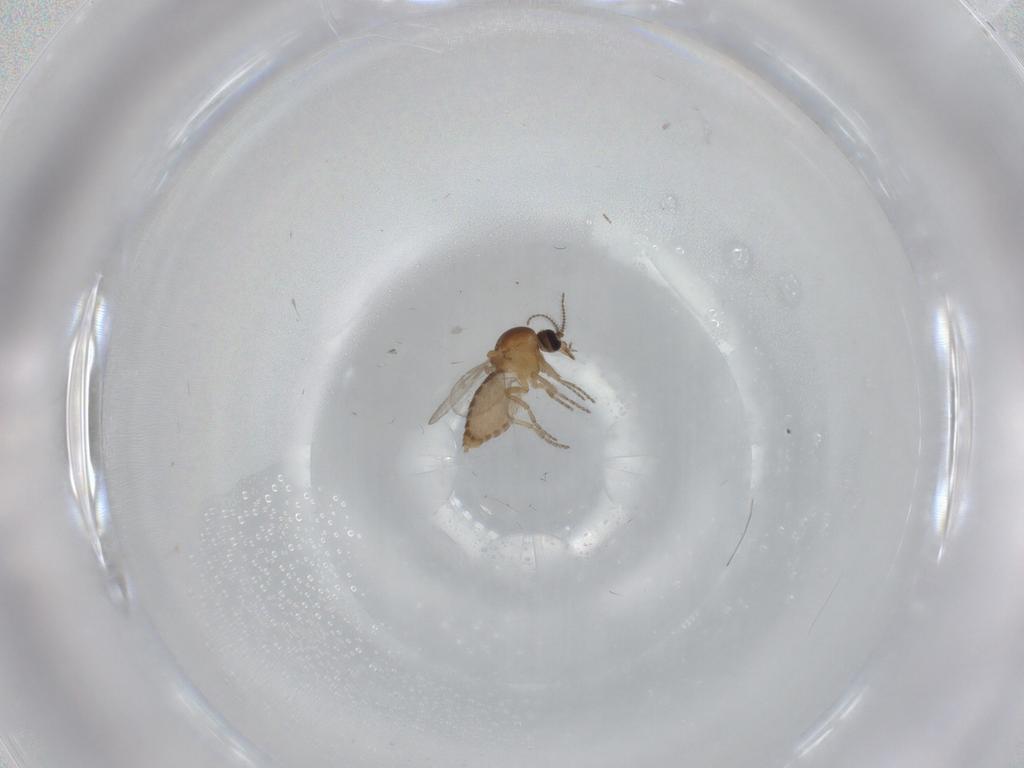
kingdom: Animalia
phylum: Arthropoda
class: Insecta
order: Diptera
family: Ceratopogonidae
